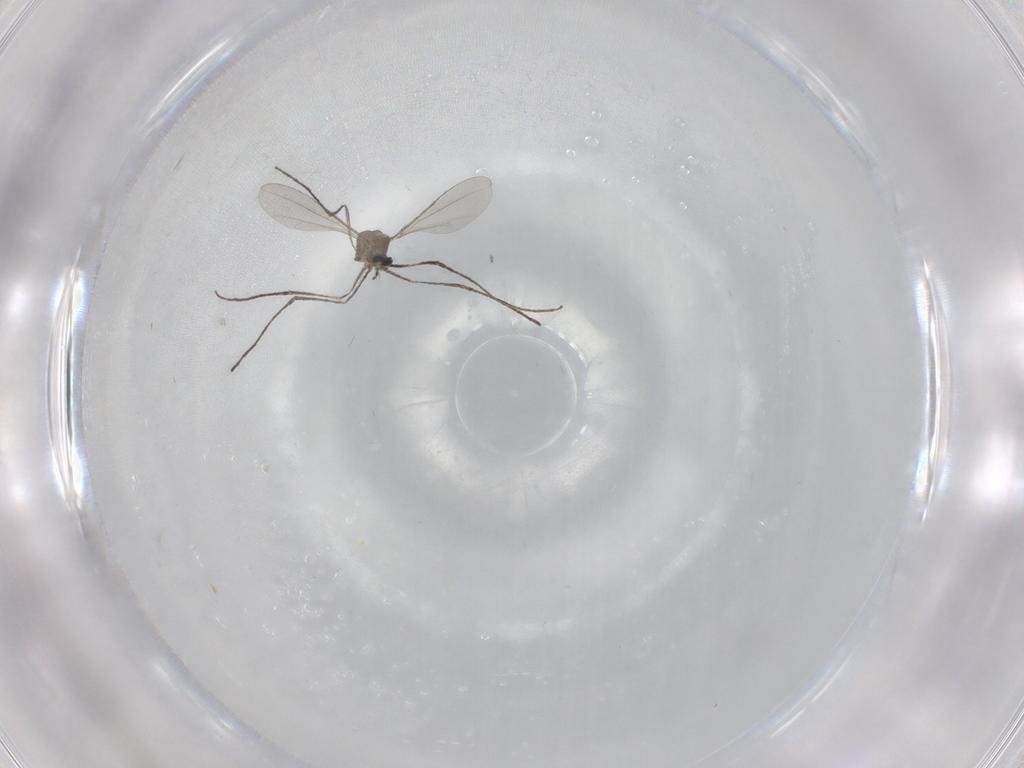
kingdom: Animalia
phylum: Arthropoda
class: Insecta
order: Diptera
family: Cecidomyiidae
